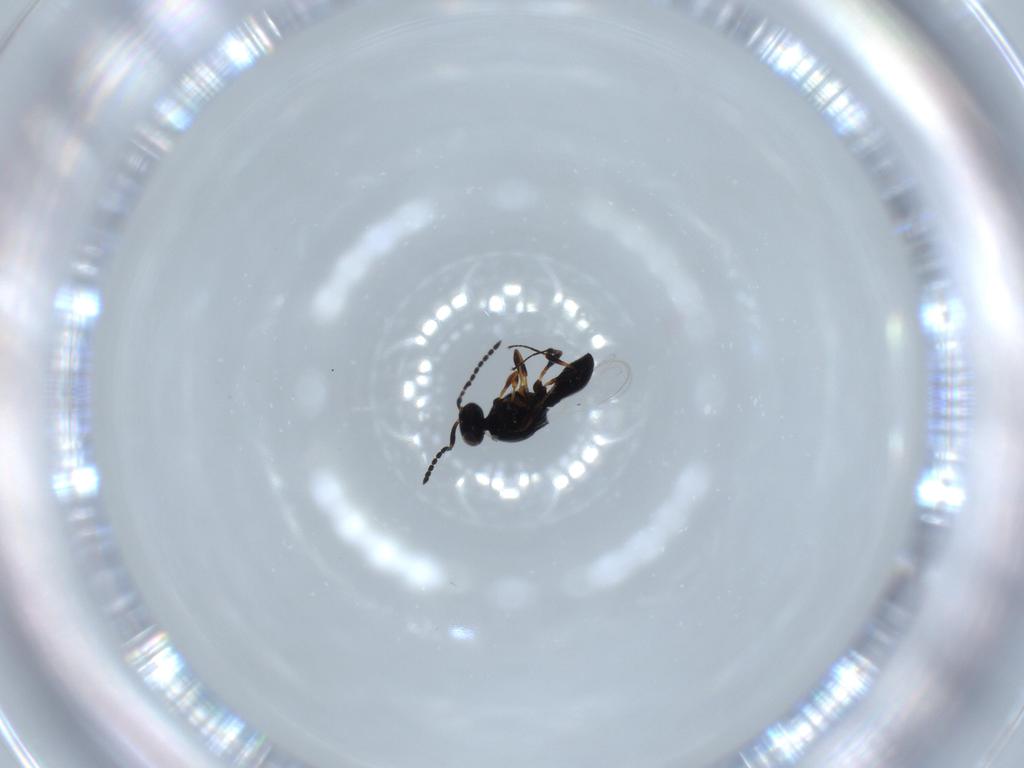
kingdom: Animalia
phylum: Arthropoda
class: Insecta
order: Hymenoptera
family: Platygastridae
